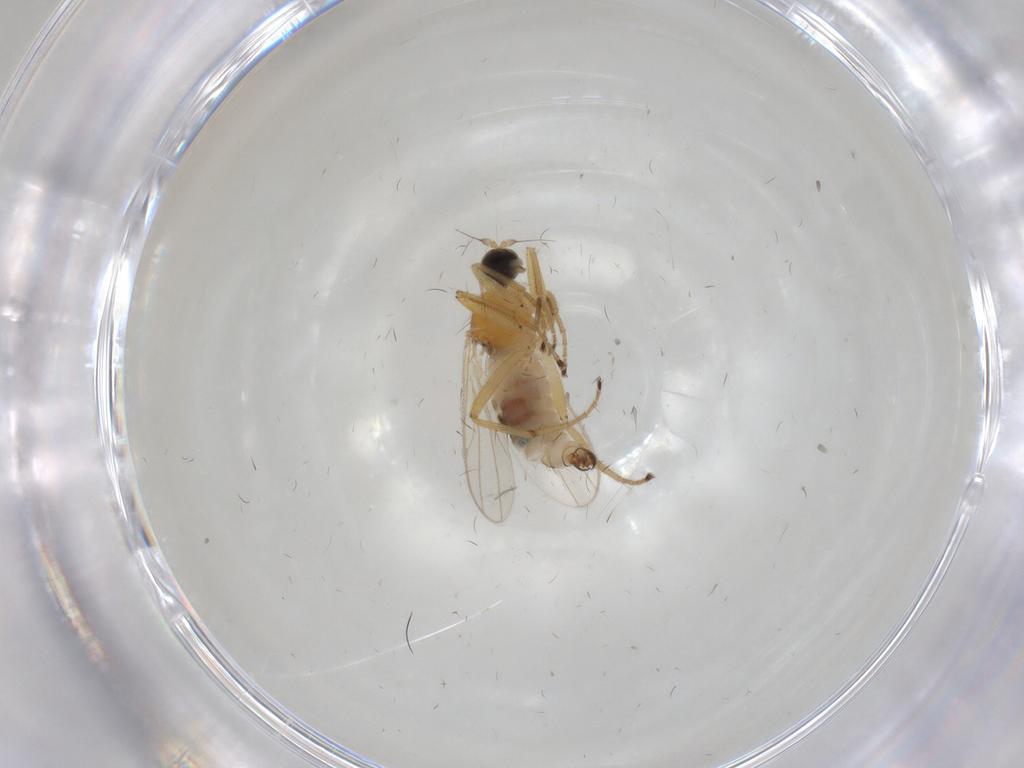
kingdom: Animalia
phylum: Arthropoda
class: Insecta
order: Diptera
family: Hybotidae
